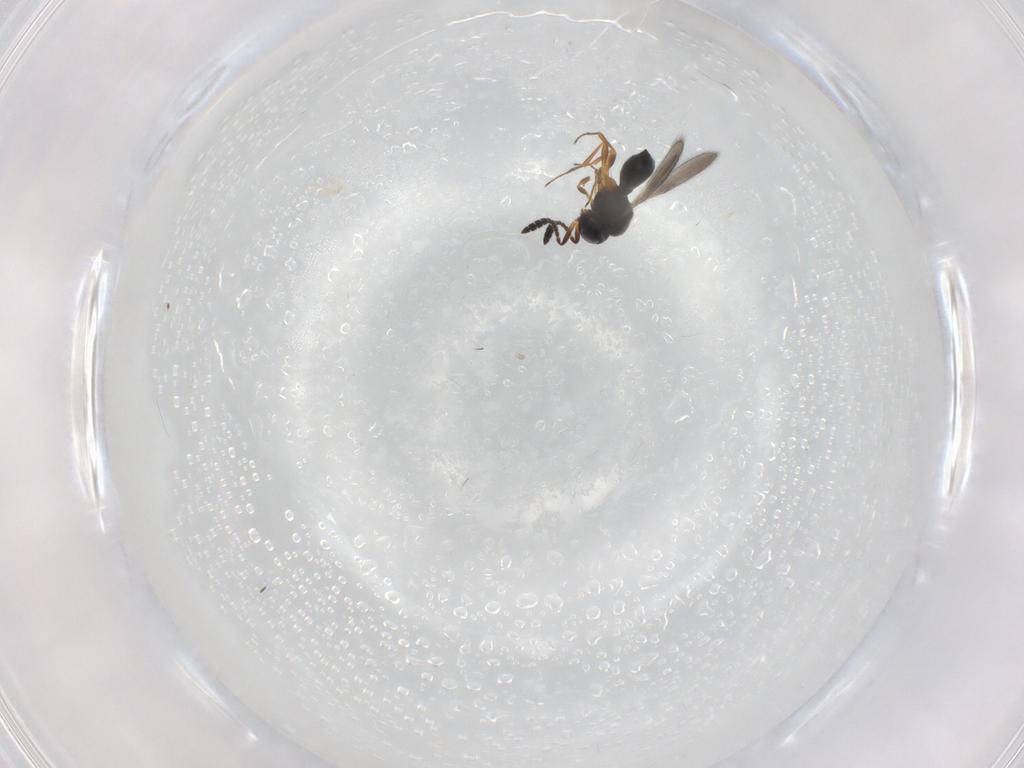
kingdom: Animalia
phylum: Arthropoda
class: Insecta
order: Hymenoptera
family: Scelionidae
